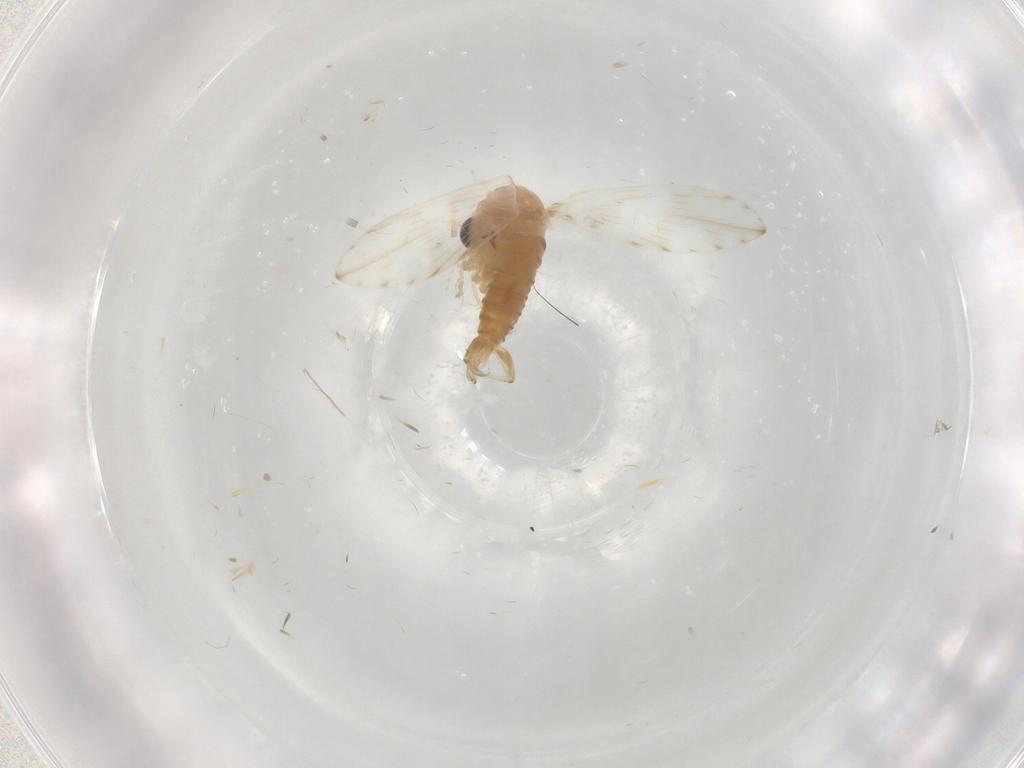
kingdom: Animalia
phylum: Arthropoda
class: Insecta
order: Diptera
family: Psychodidae
